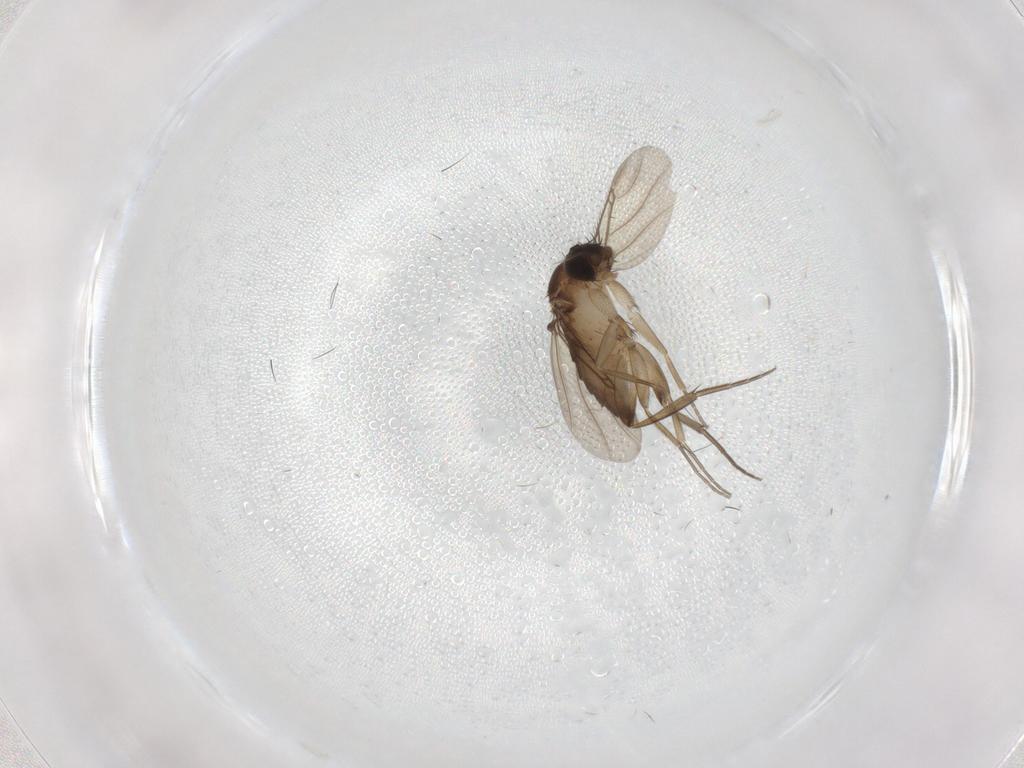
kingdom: Animalia
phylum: Arthropoda
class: Insecta
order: Diptera
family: Phoridae
